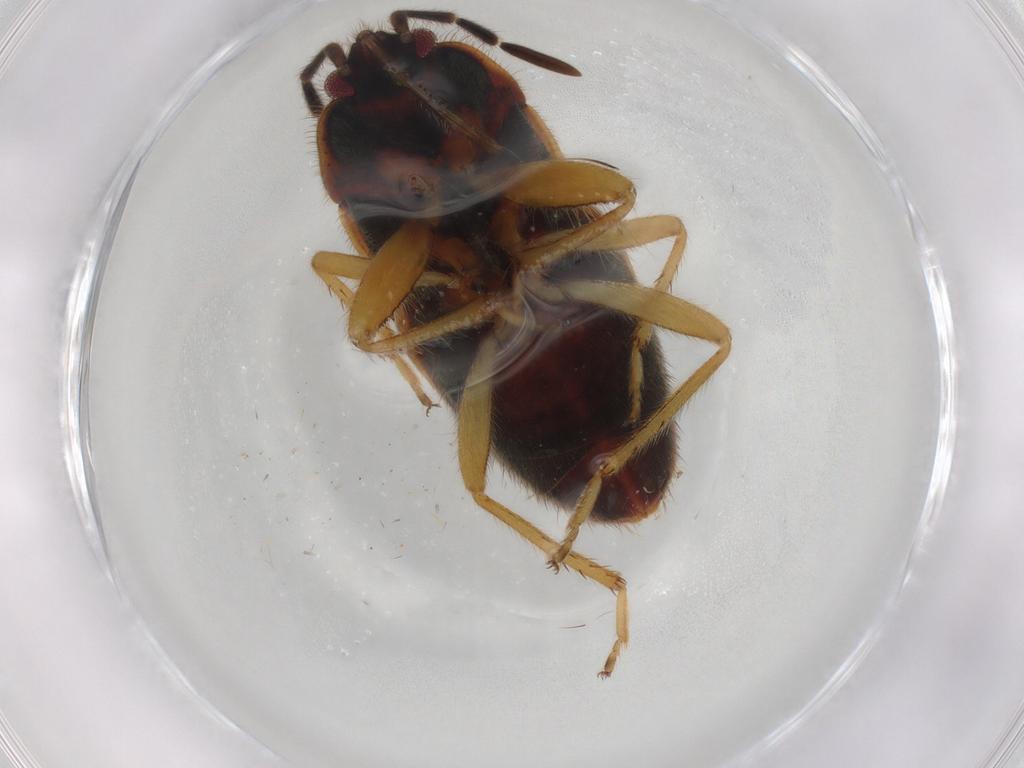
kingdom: Animalia
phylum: Arthropoda
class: Insecta
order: Hemiptera
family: Rhyparochromidae
